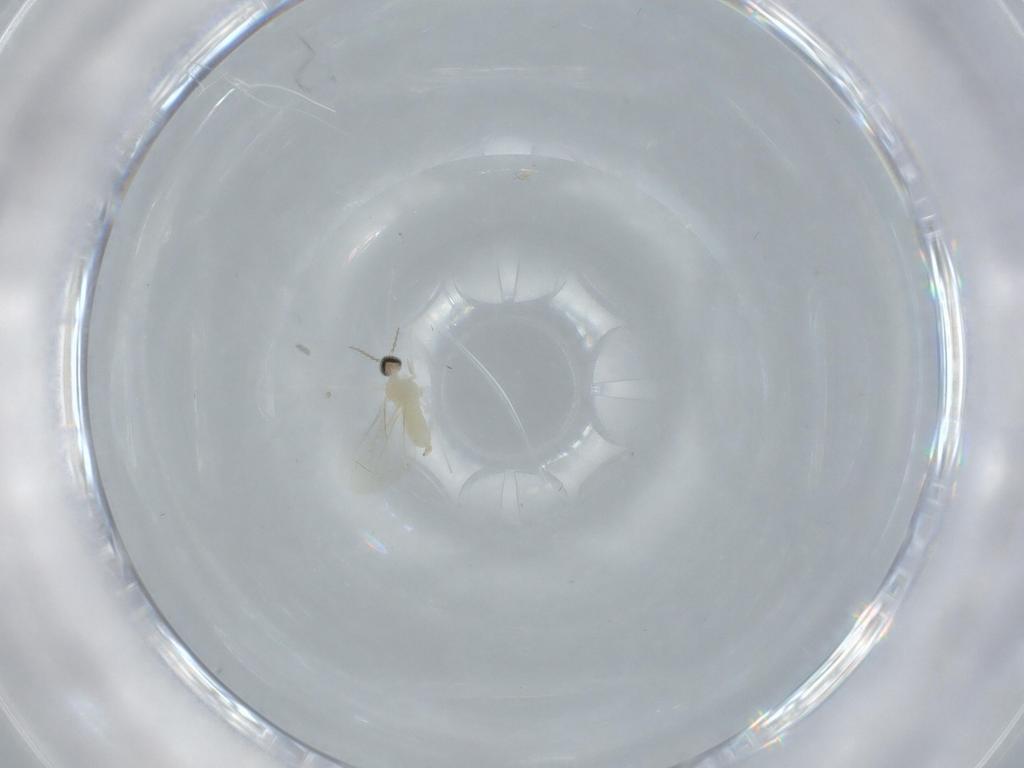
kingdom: Animalia
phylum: Arthropoda
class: Insecta
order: Diptera
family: Cecidomyiidae
